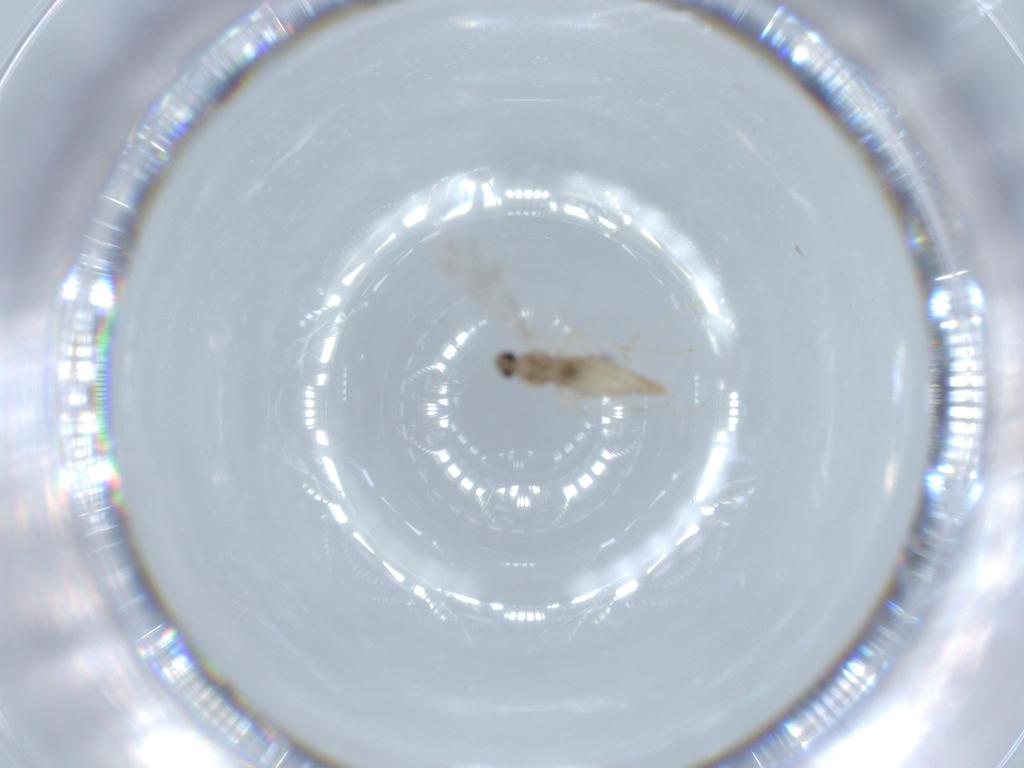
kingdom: Animalia
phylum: Arthropoda
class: Insecta
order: Diptera
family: Cecidomyiidae
